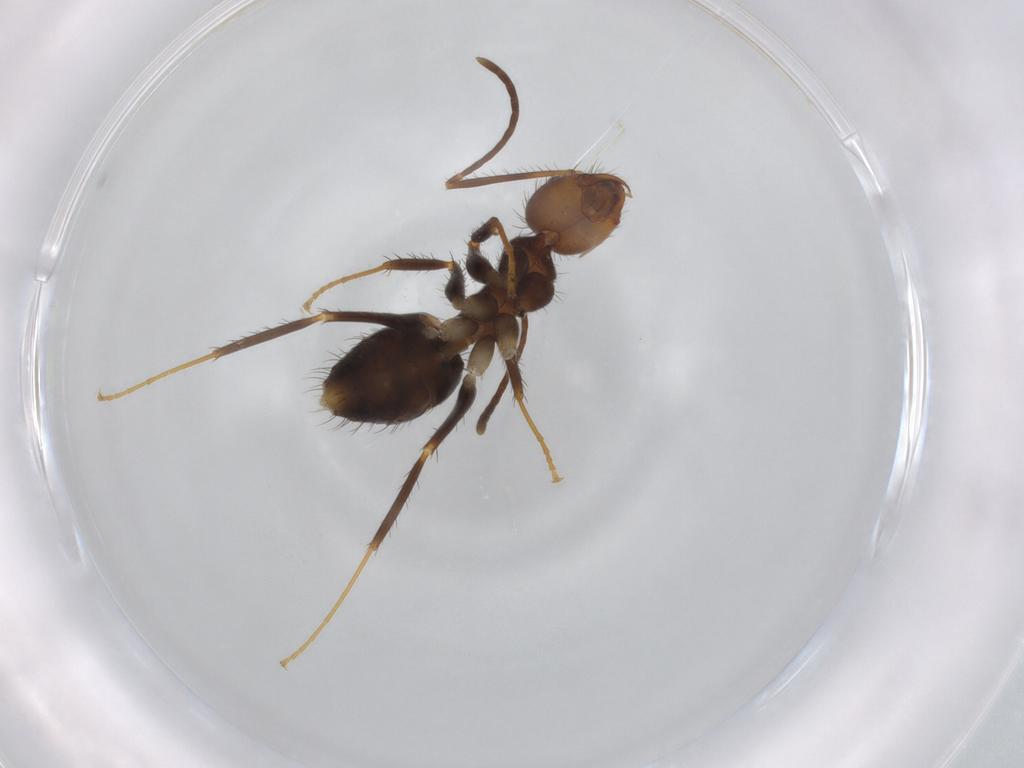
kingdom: Animalia
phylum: Arthropoda
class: Insecta
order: Hymenoptera
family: Formicidae
